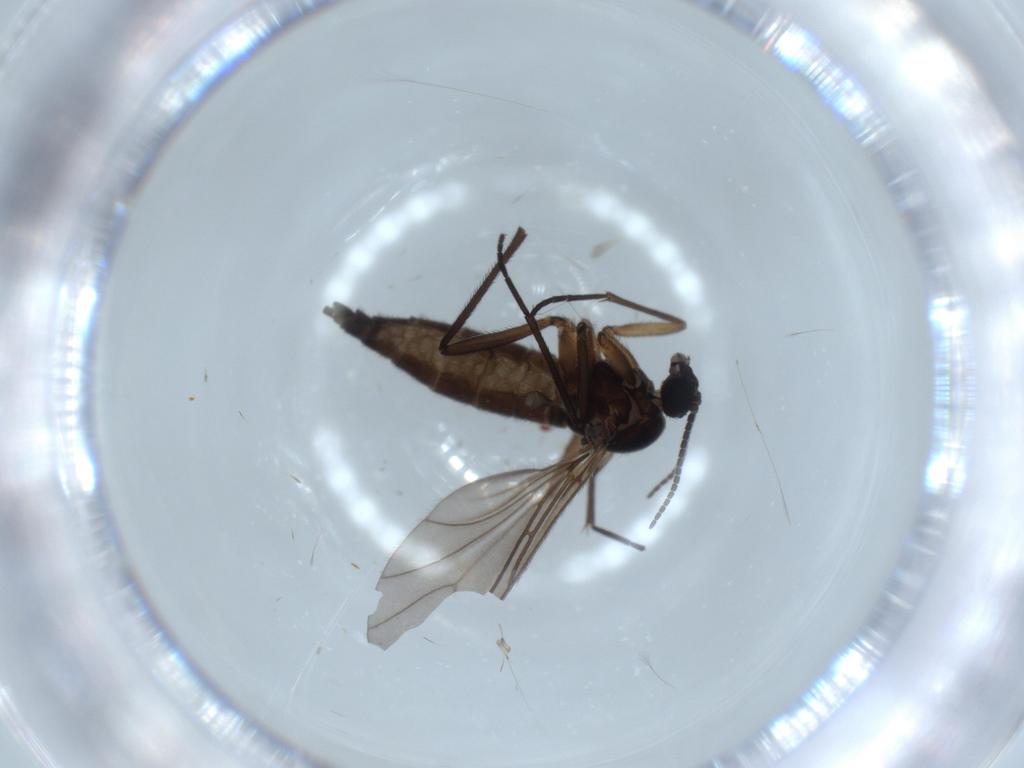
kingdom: Animalia
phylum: Arthropoda
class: Insecta
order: Diptera
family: Sciaridae
